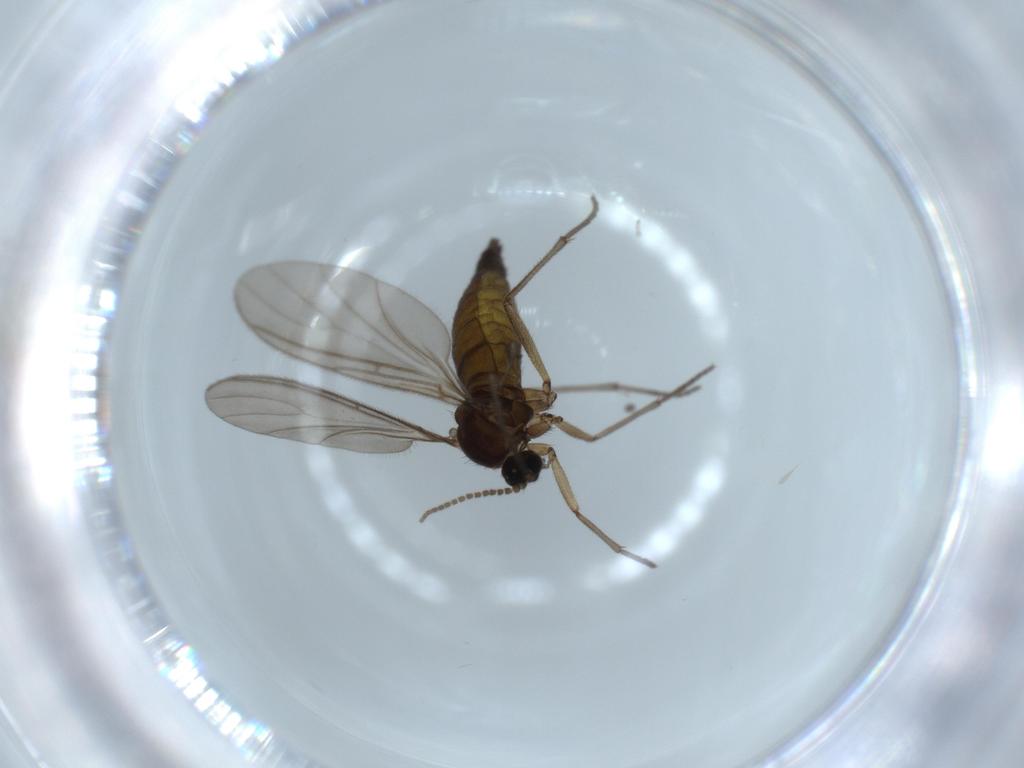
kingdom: Animalia
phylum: Arthropoda
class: Insecta
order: Diptera
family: Sciaridae
